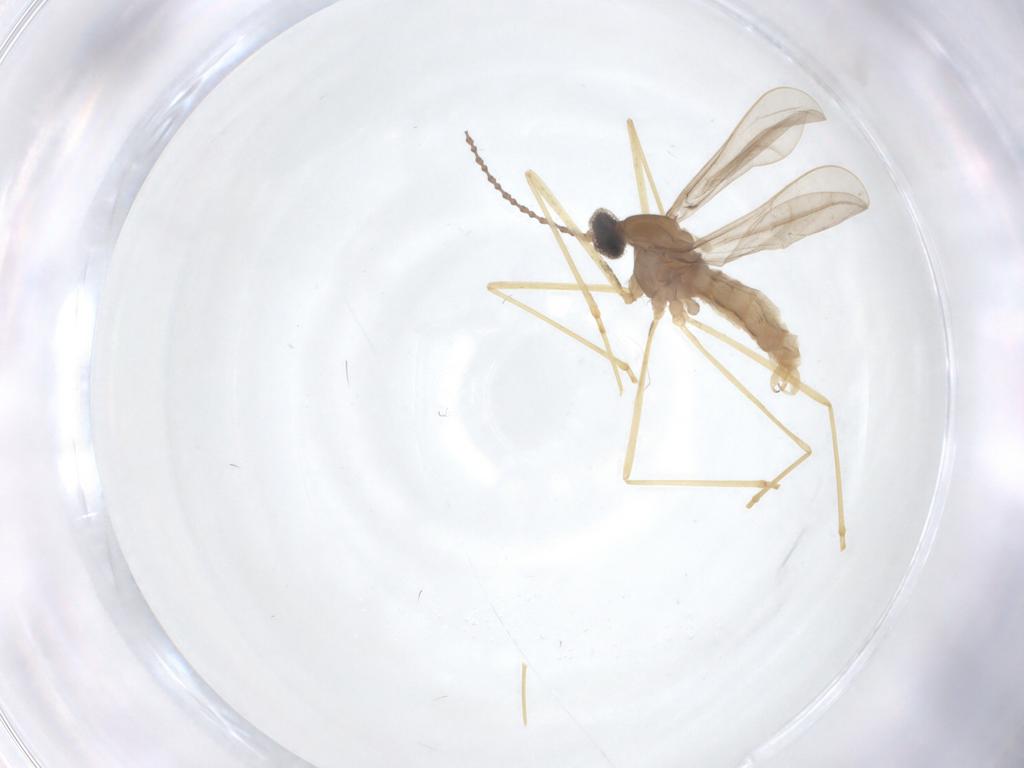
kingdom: Animalia
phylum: Arthropoda
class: Insecta
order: Diptera
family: Cecidomyiidae
